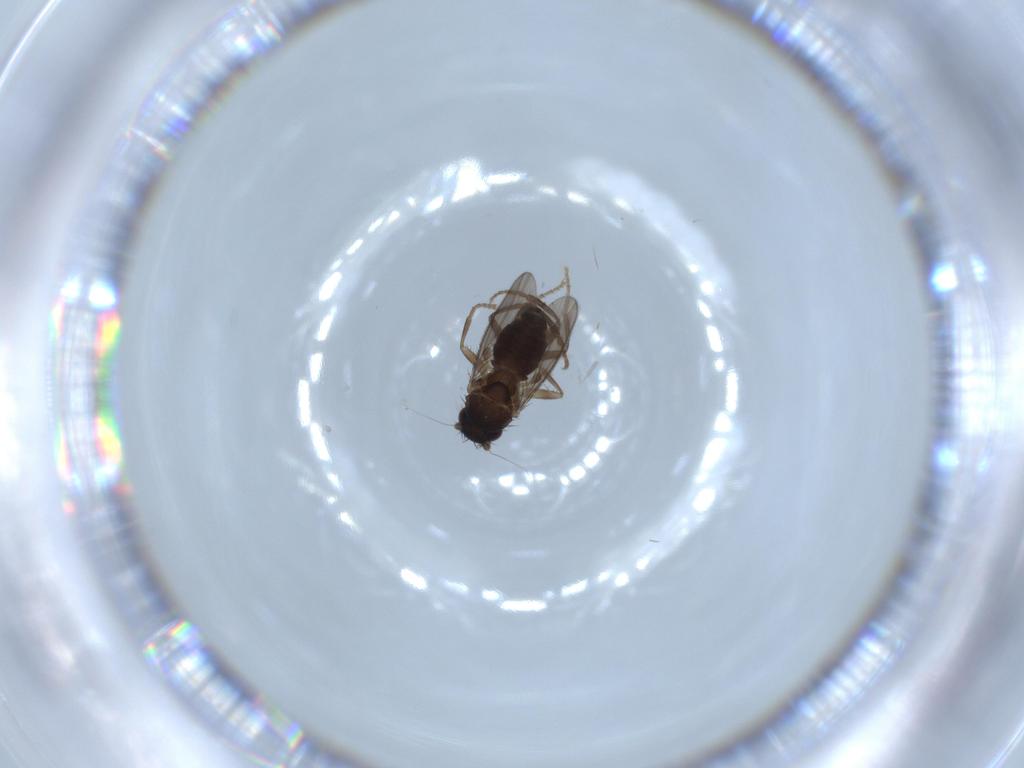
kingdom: Animalia
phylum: Arthropoda
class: Insecta
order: Diptera
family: Sphaeroceridae
